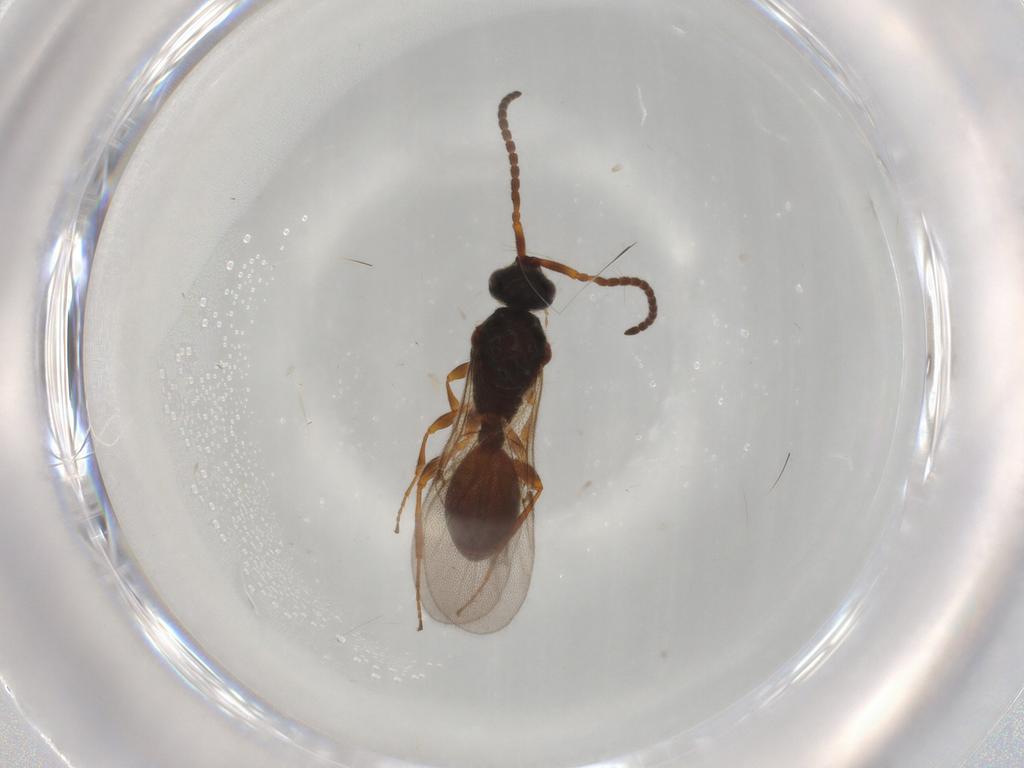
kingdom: Animalia
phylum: Arthropoda
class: Insecta
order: Hymenoptera
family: Diapriidae
